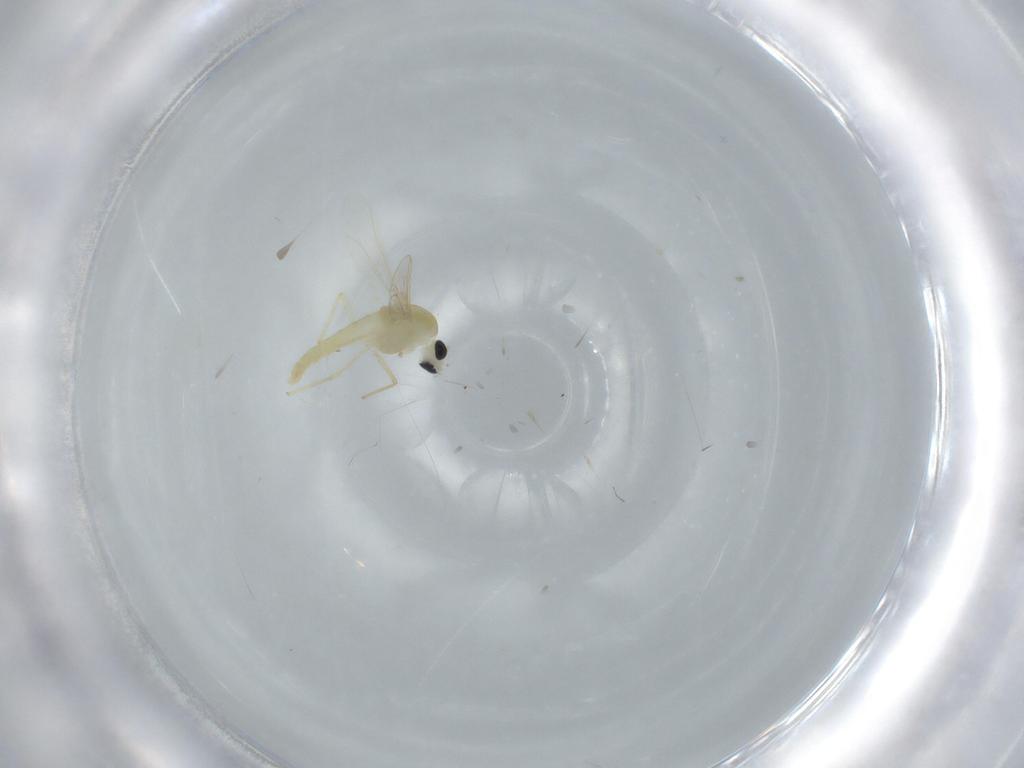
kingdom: Animalia
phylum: Arthropoda
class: Insecta
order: Diptera
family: Chironomidae
